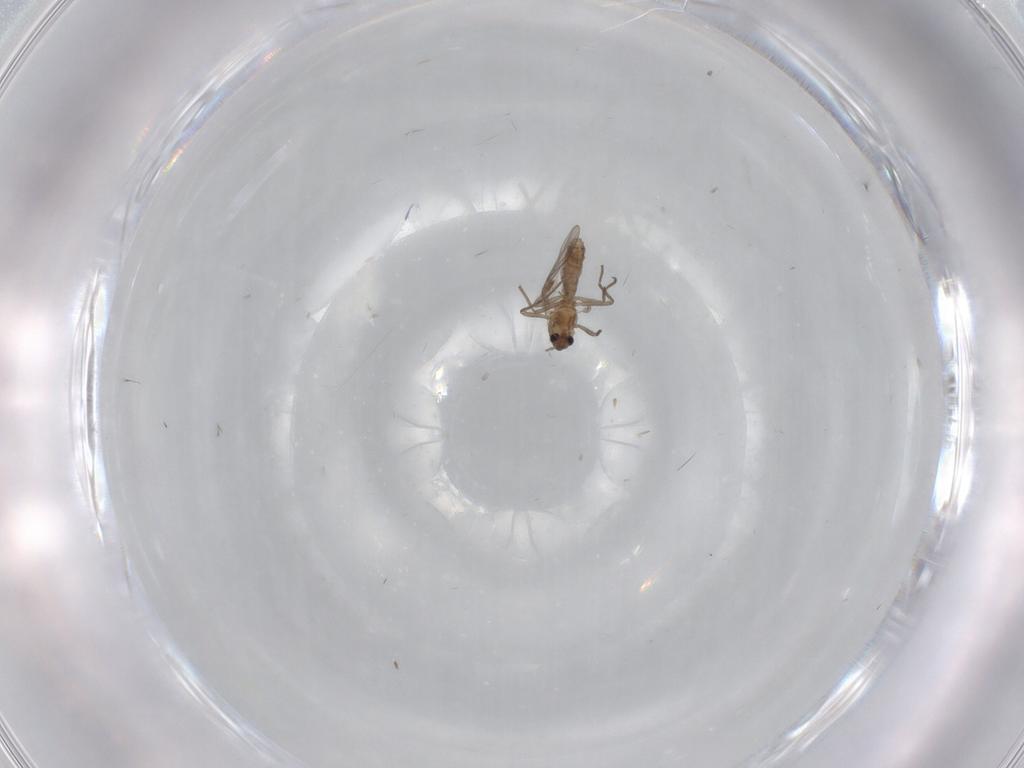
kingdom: Animalia
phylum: Arthropoda
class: Insecta
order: Diptera
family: Chironomidae
